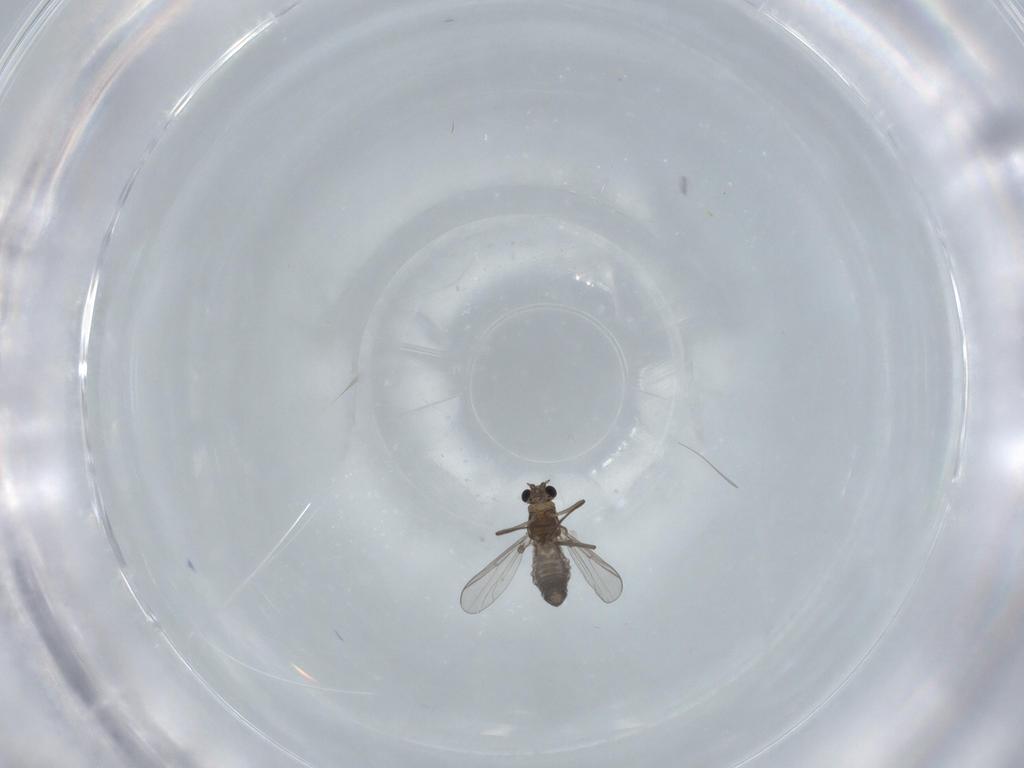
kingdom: Animalia
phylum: Arthropoda
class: Insecta
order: Diptera
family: Chironomidae
